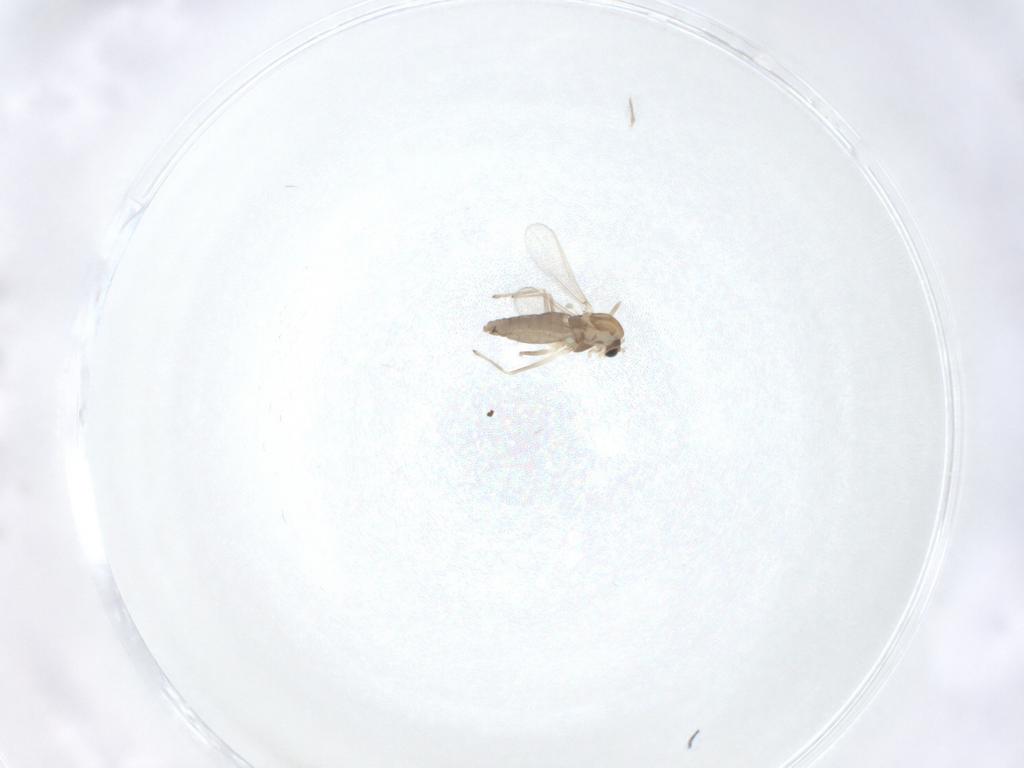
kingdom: Animalia
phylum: Arthropoda
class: Insecta
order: Diptera
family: Chironomidae
